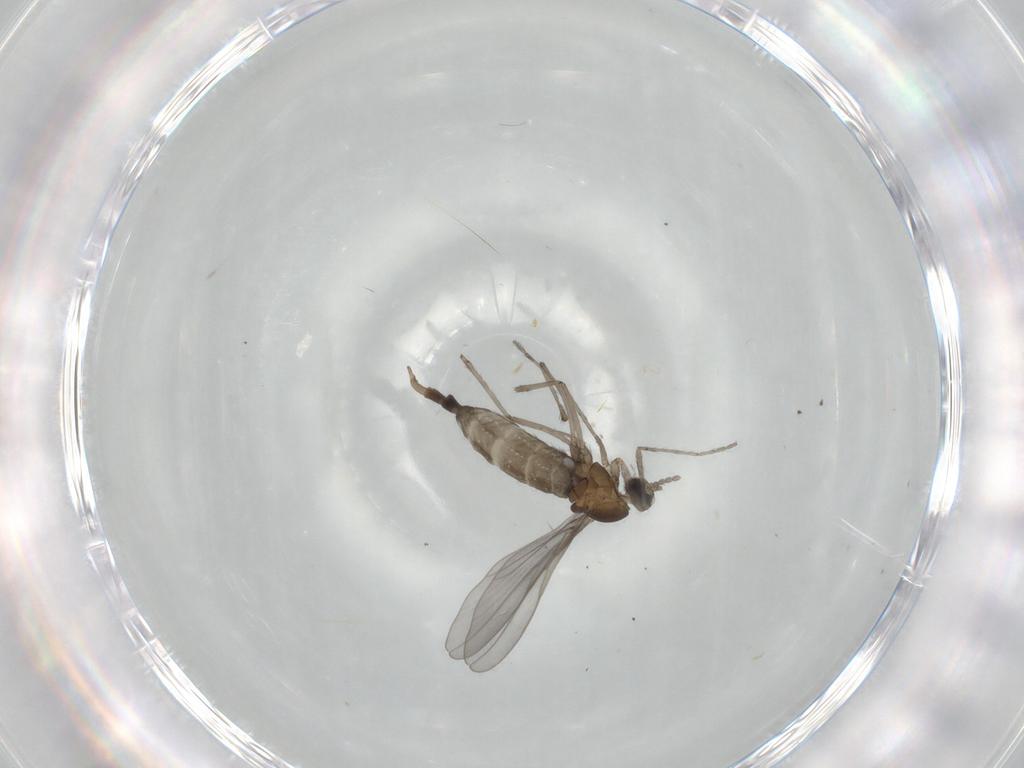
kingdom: Animalia
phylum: Arthropoda
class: Insecta
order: Diptera
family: Cecidomyiidae
